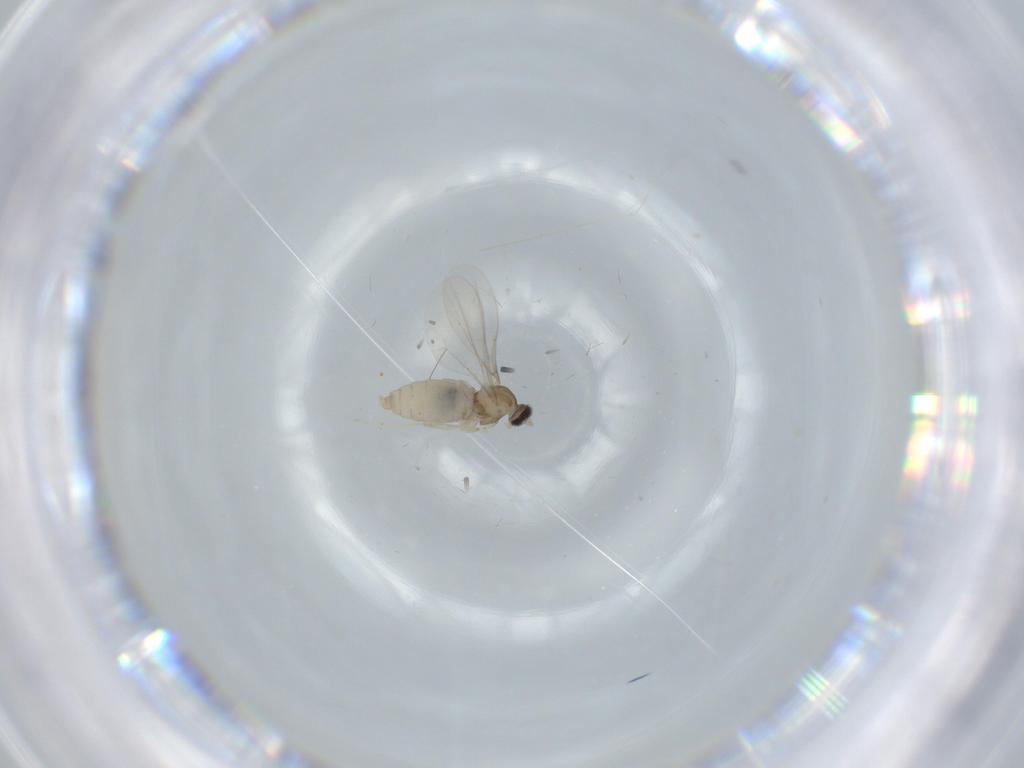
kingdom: Animalia
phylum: Arthropoda
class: Insecta
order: Diptera
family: Cecidomyiidae
